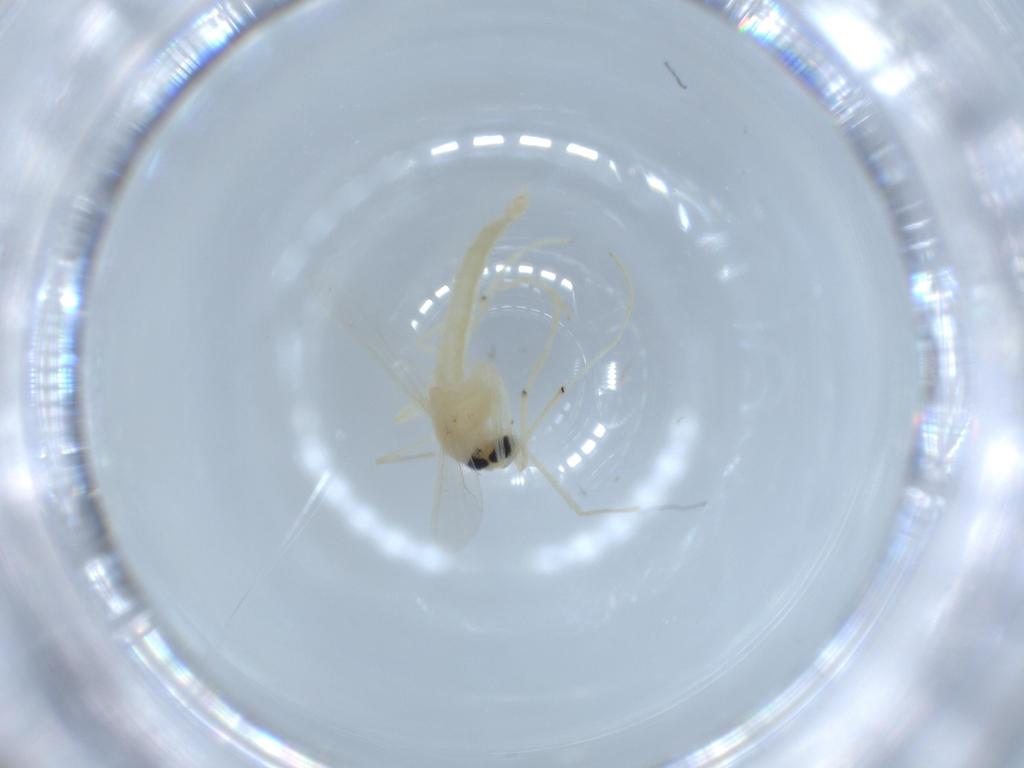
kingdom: Animalia
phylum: Arthropoda
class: Insecta
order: Diptera
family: Chironomidae
